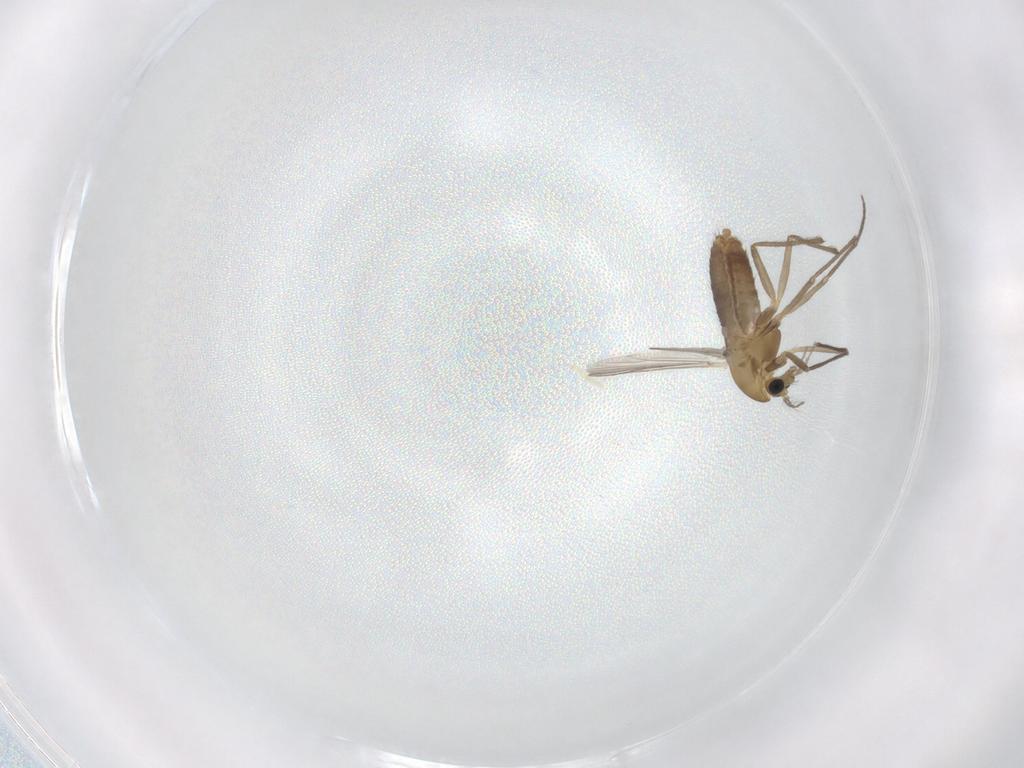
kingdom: Animalia
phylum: Arthropoda
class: Insecta
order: Diptera
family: Chironomidae
